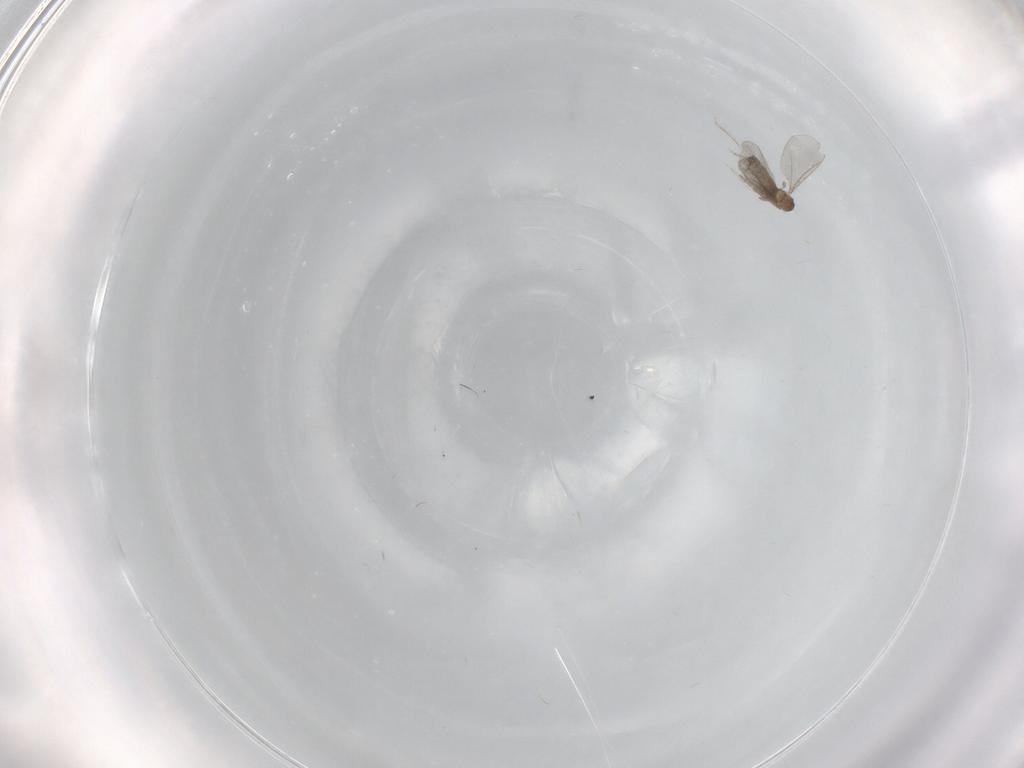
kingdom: Animalia
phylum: Arthropoda
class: Insecta
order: Diptera
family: Cecidomyiidae
